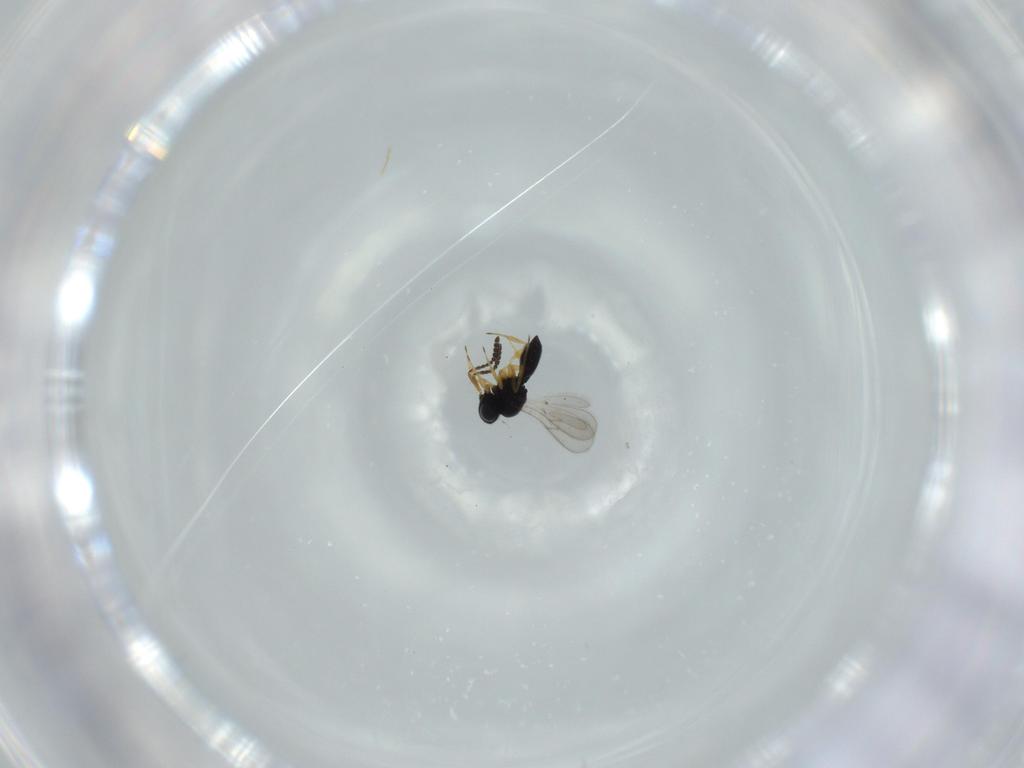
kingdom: Animalia
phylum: Arthropoda
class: Insecta
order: Hymenoptera
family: Scelionidae
